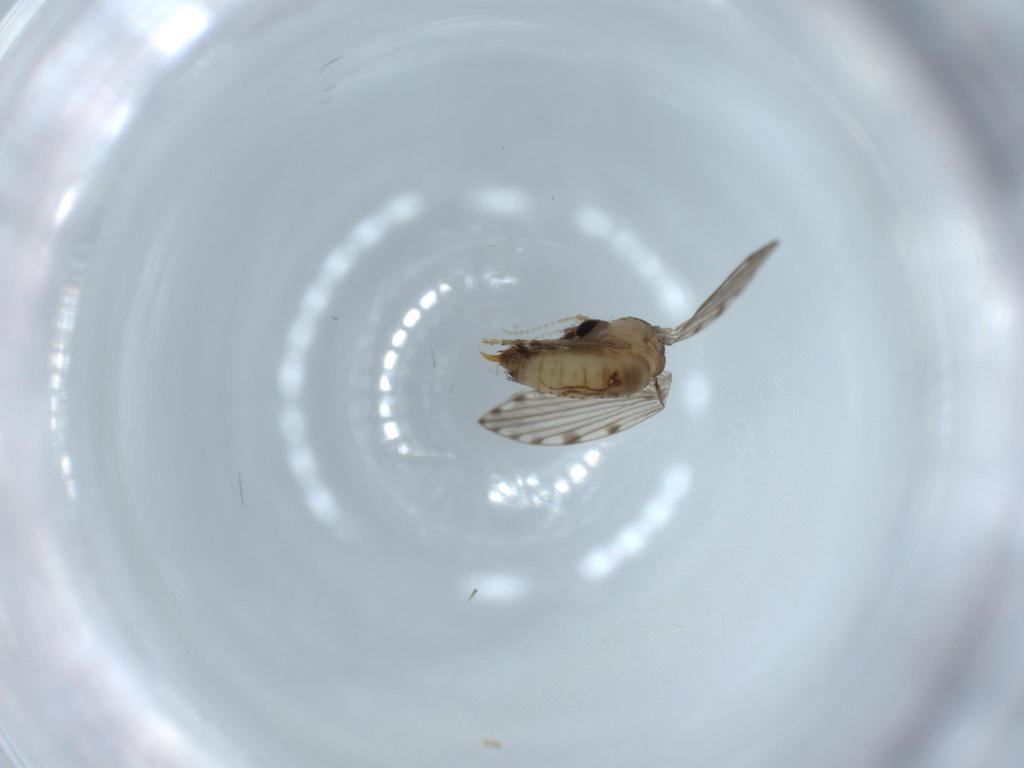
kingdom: Animalia
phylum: Arthropoda
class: Insecta
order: Diptera
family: Psychodidae
